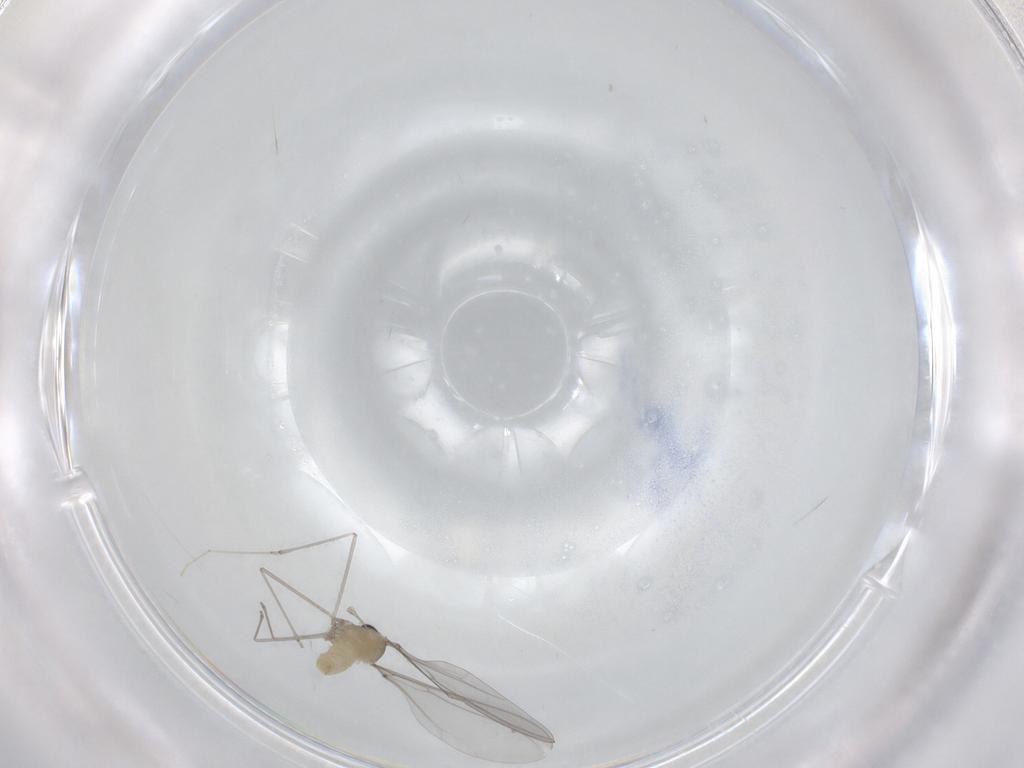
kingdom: Animalia
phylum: Arthropoda
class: Insecta
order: Diptera
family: Cecidomyiidae
